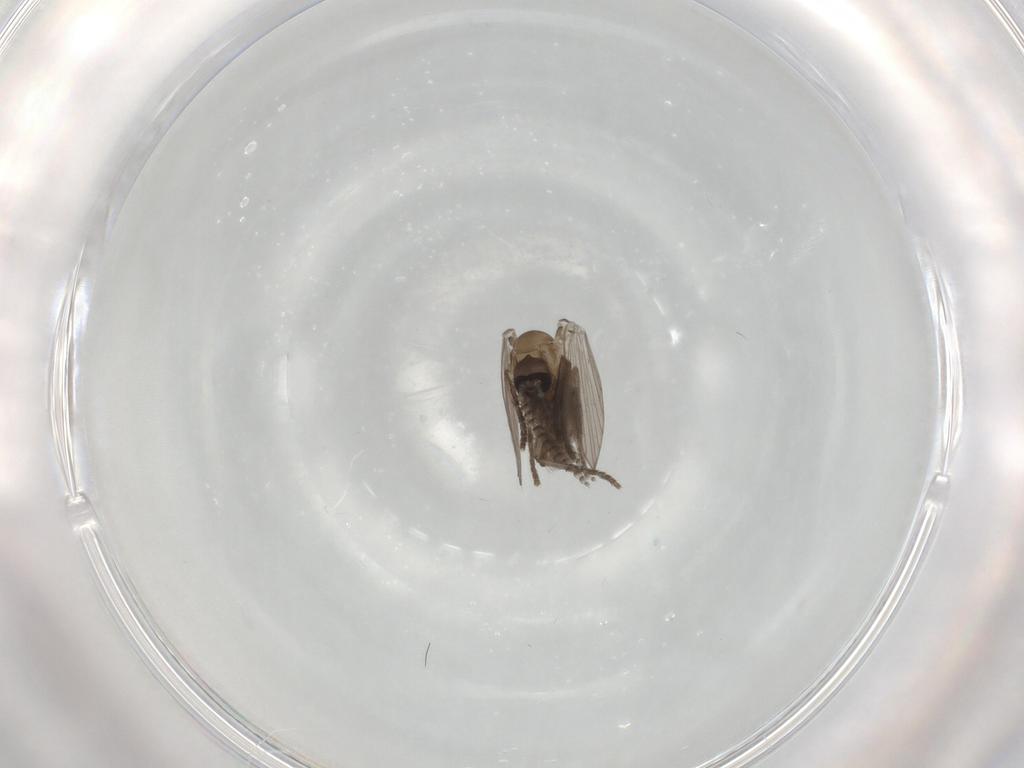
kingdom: Animalia
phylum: Arthropoda
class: Insecta
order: Diptera
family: Psychodidae
